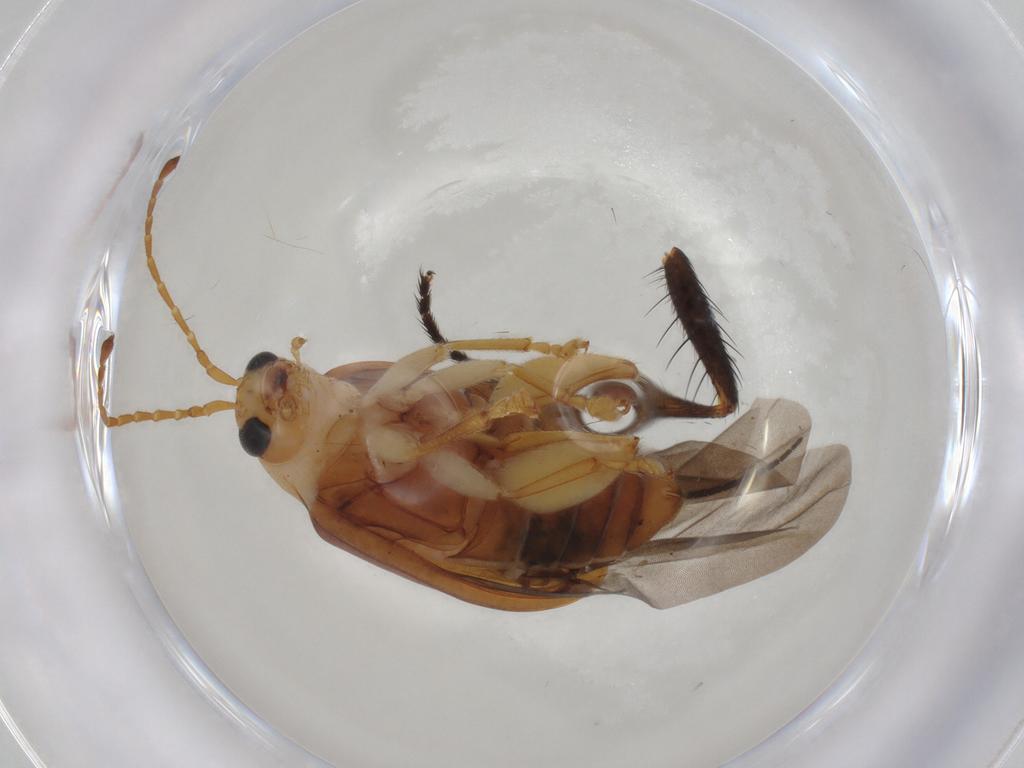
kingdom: Animalia
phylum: Arthropoda
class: Insecta
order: Coleoptera
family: Chrysomelidae
